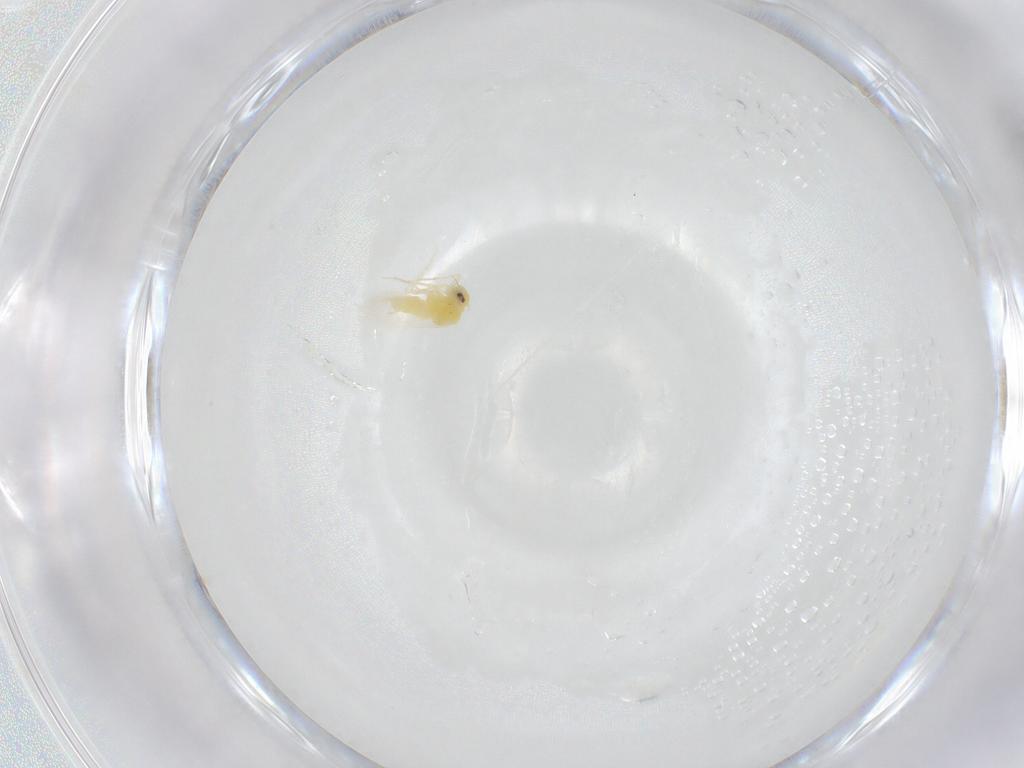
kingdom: Animalia
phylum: Arthropoda
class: Insecta
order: Hemiptera
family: Aleyrodidae
